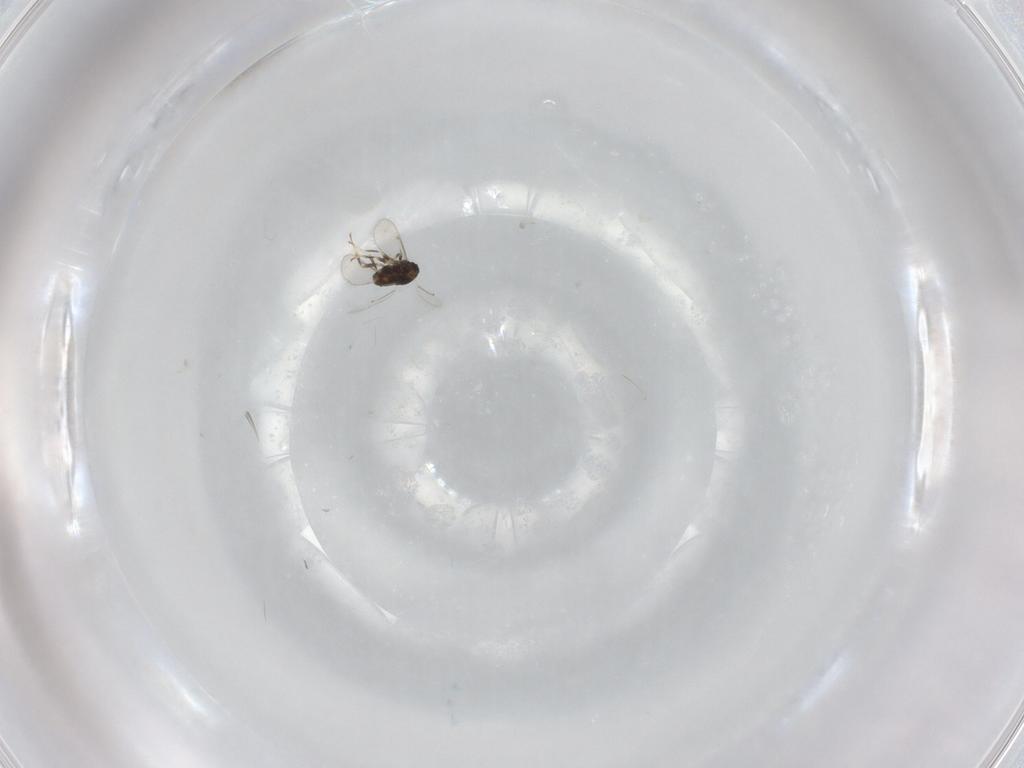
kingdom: Animalia
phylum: Arthropoda
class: Insecta
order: Hymenoptera
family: Aphelinidae
